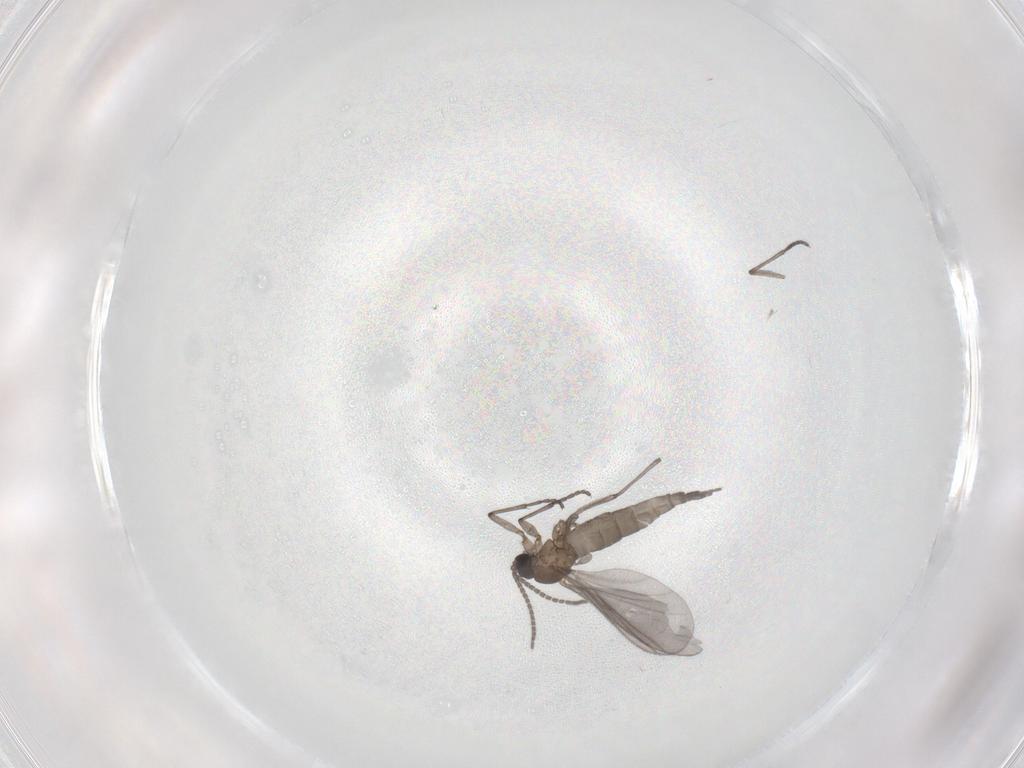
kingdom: Animalia
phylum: Arthropoda
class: Insecta
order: Diptera
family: Sciaridae
